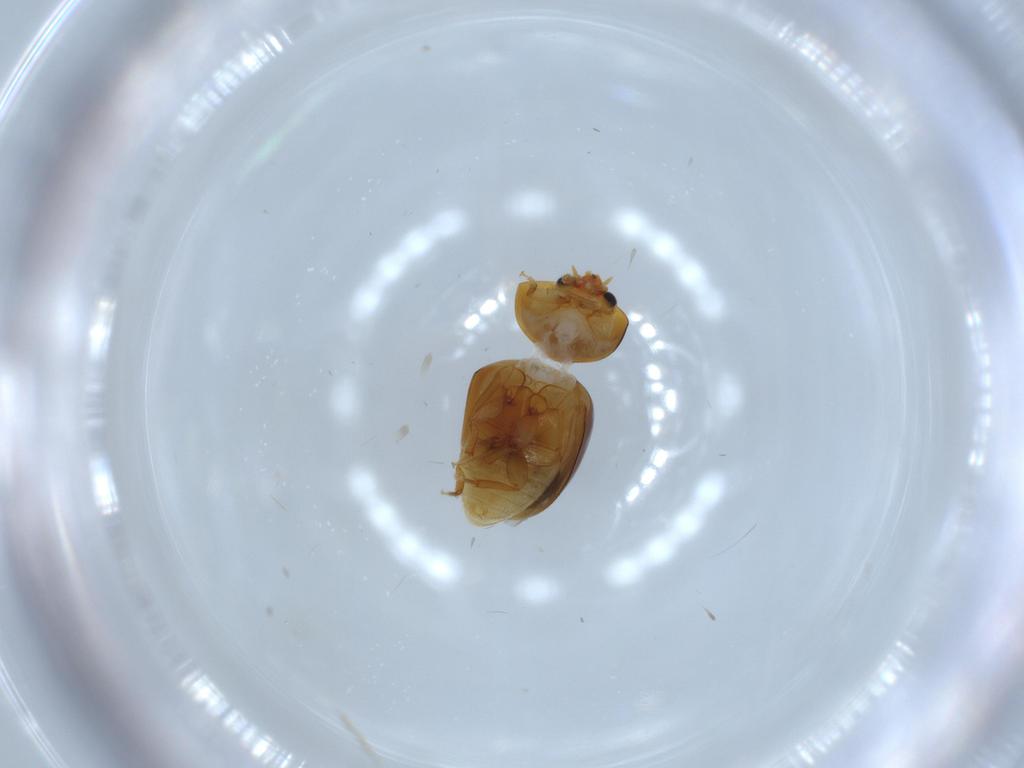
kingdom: Animalia
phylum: Arthropoda
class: Insecta
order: Coleoptera
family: Phalacridae
